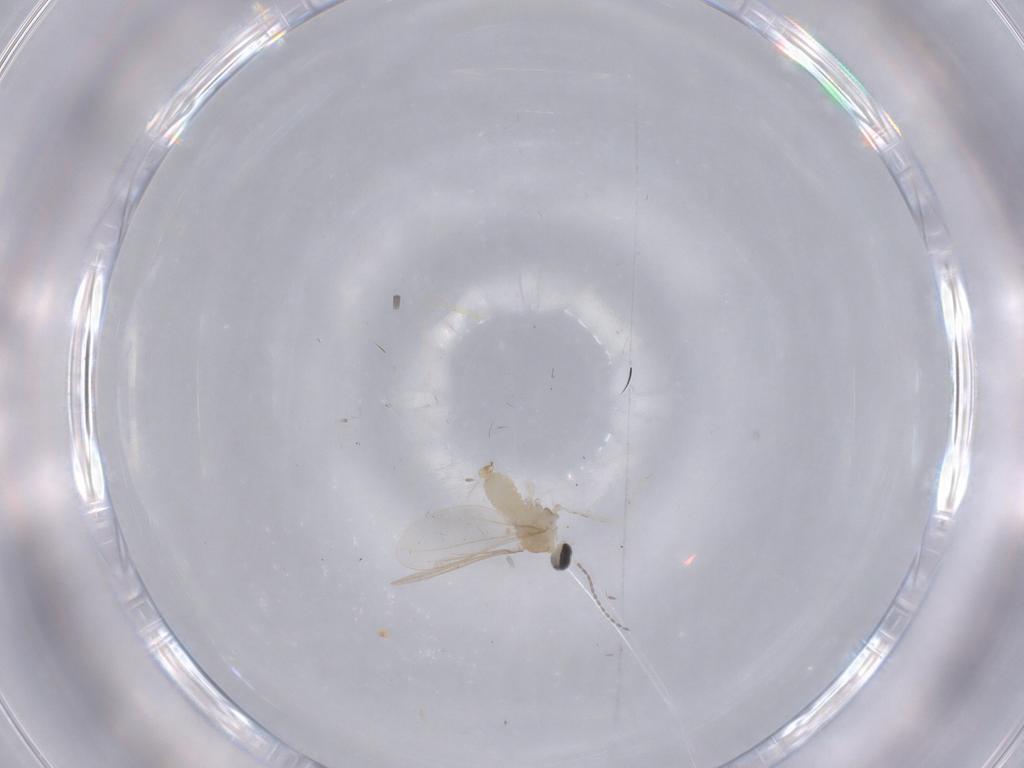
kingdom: Animalia
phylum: Arthropoda
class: Insecta
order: Diptera
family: Cecidomyiidae
